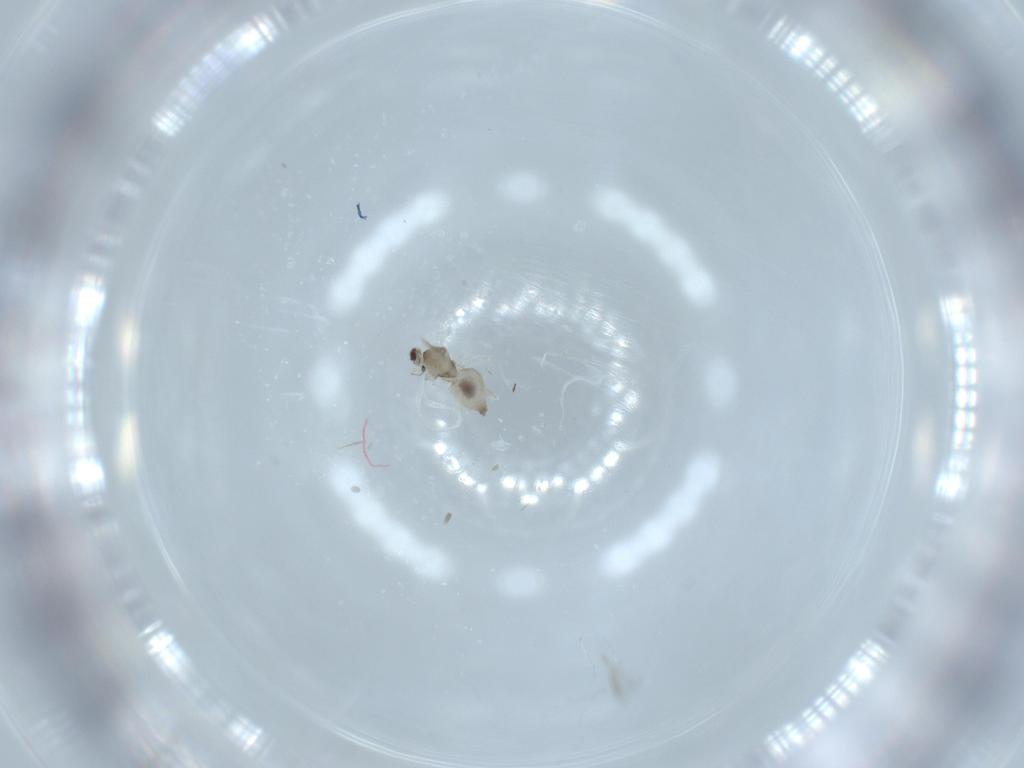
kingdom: Animalia
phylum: Arthropoda
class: Insecta
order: Diptera
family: Cecidomyiidae
